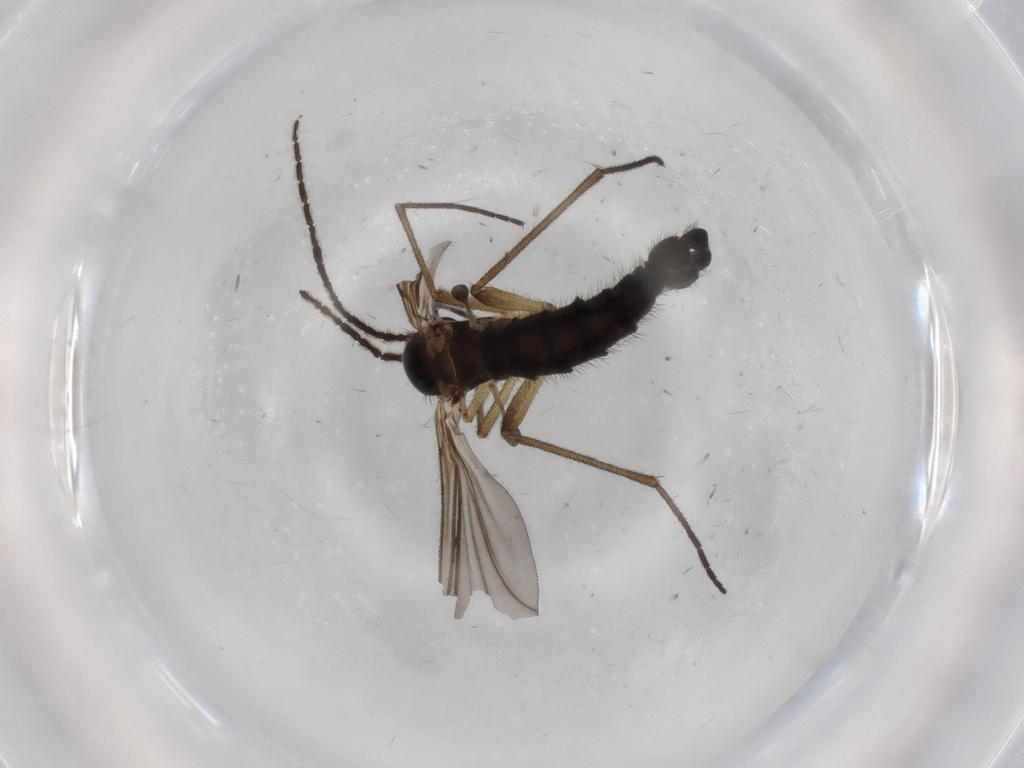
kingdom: Animalia
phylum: Arthropoda
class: Insecta
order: Diptera
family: Sciaridae
